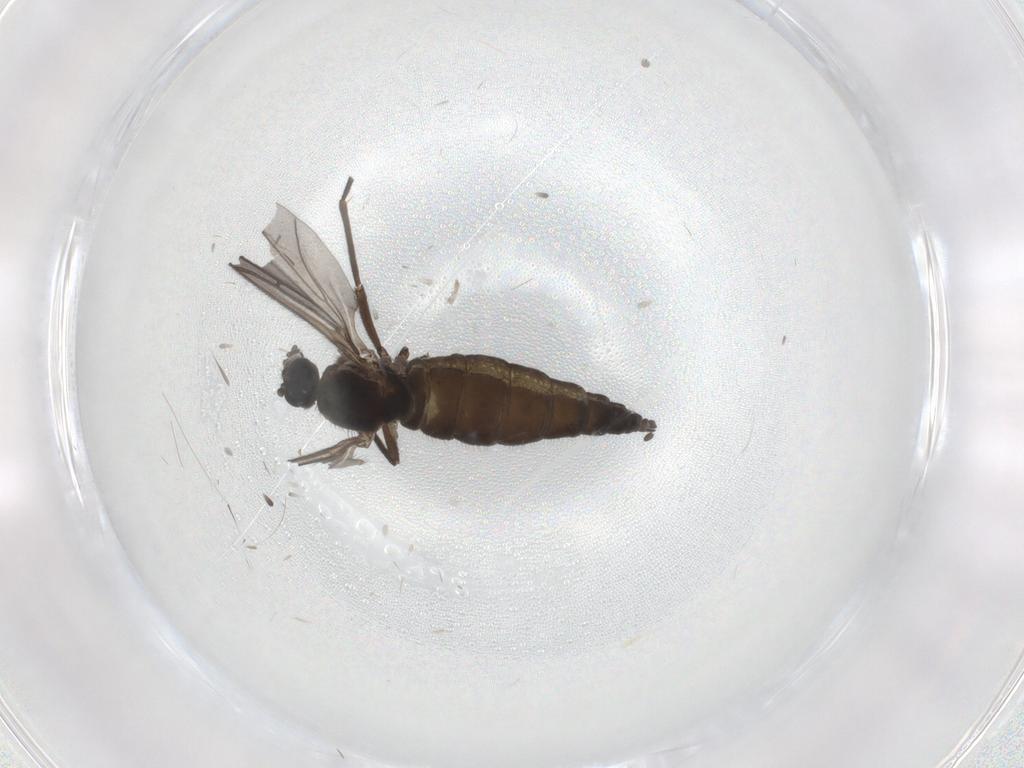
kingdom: Animalia
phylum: Arthropoda
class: Insecta
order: Diptera
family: Sciaridae
